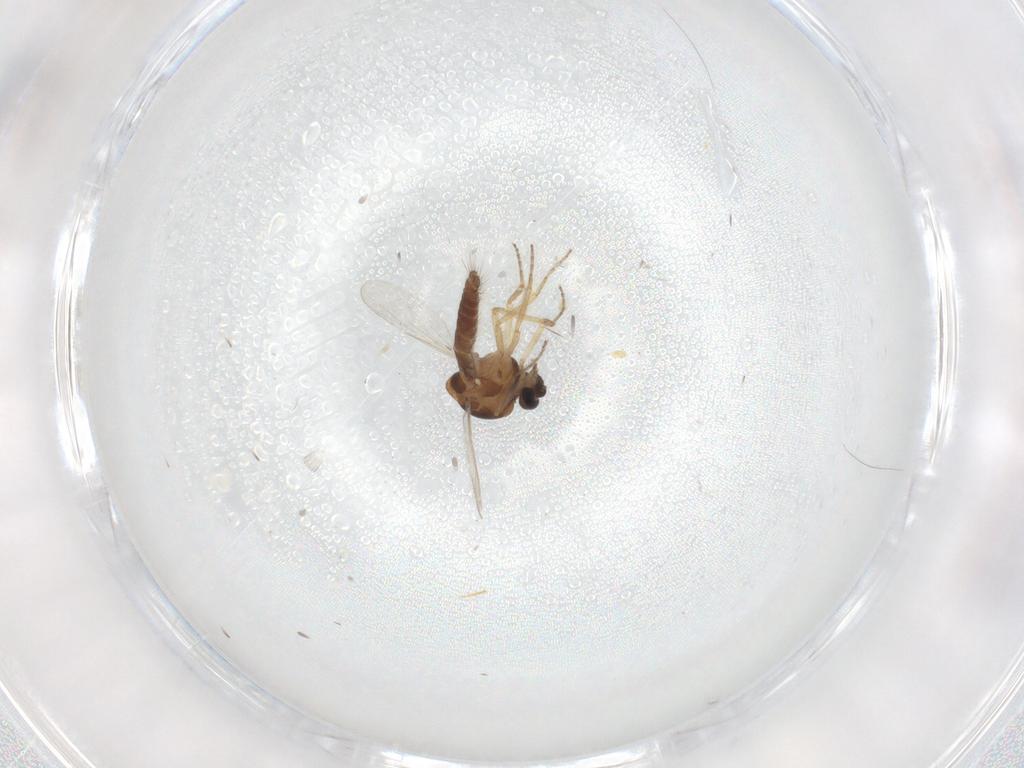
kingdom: Animalia
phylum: Arthropoda
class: Insecta
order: Diptera
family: Ceratopogonidae
